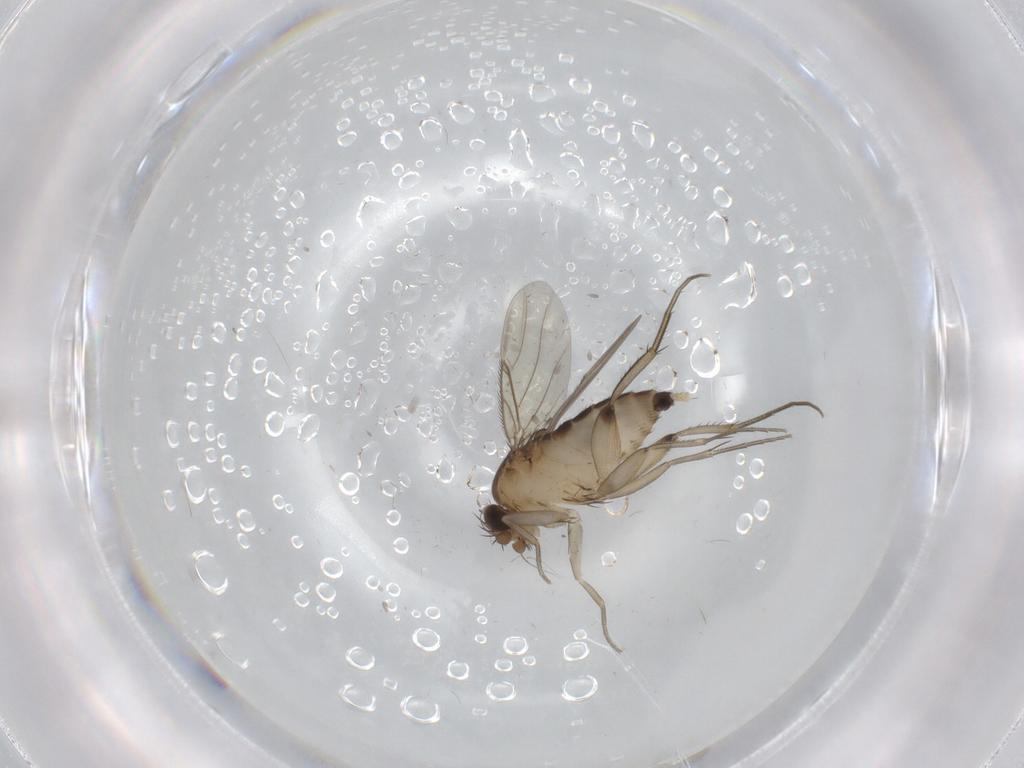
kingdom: Animalia
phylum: Arthropoda
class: Insecta
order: Diptera
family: Phoridae
